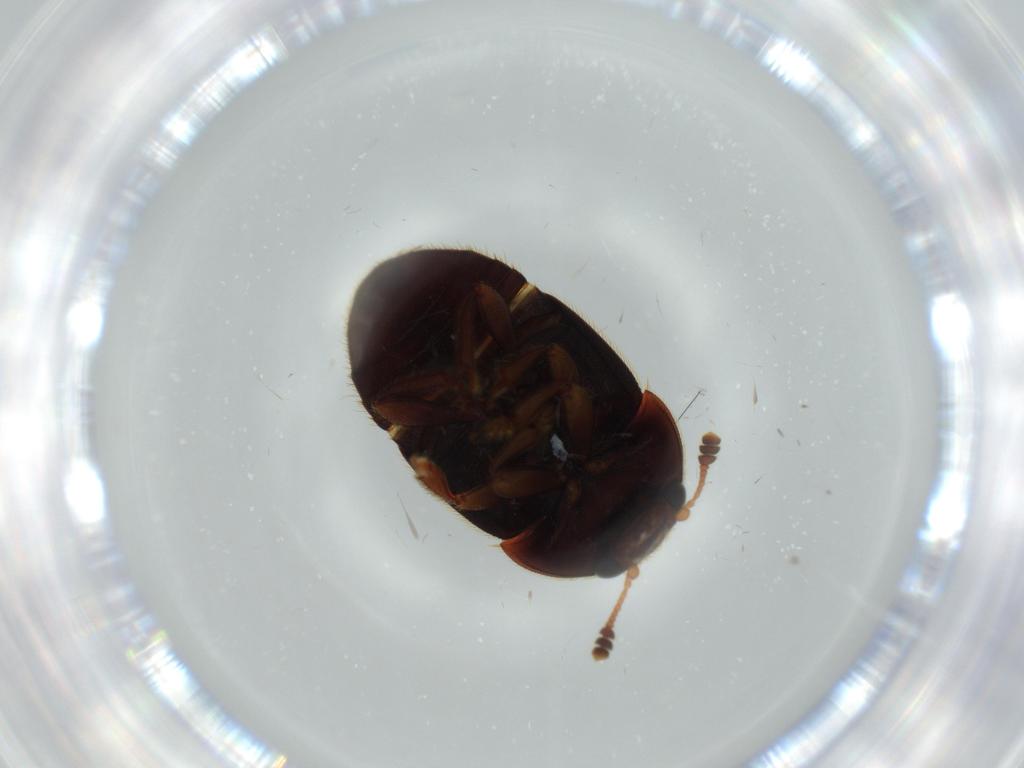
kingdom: Animalia
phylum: Arthropoda
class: Insecta
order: Coleoptera
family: Nitidulidae
